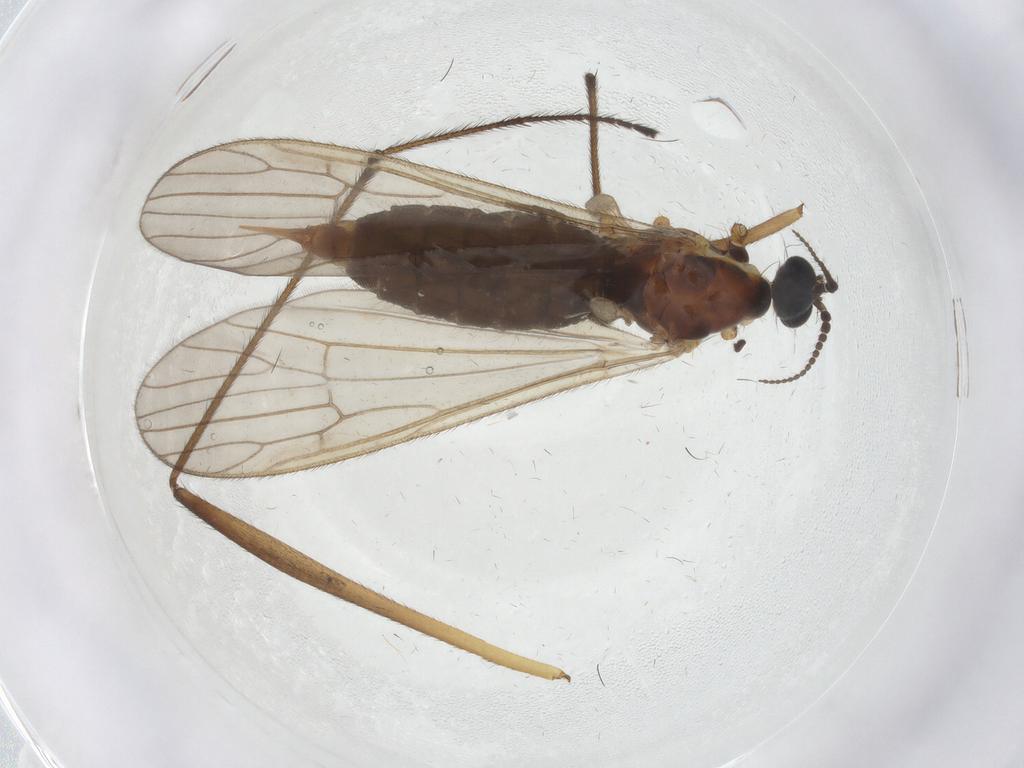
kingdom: Animalia
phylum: Arthropoda
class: Insecta
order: Diptera
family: Agromyzidae
